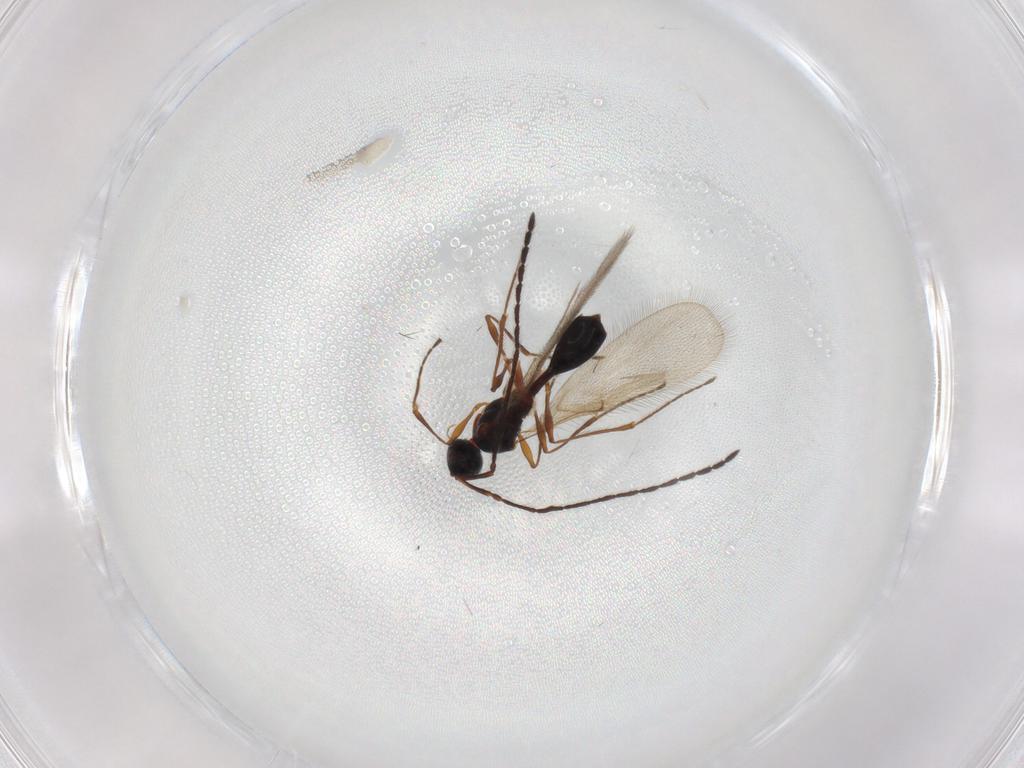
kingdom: Animalia
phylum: Arthropoda
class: Insecta
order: Hymenoptera
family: Diapriidae
